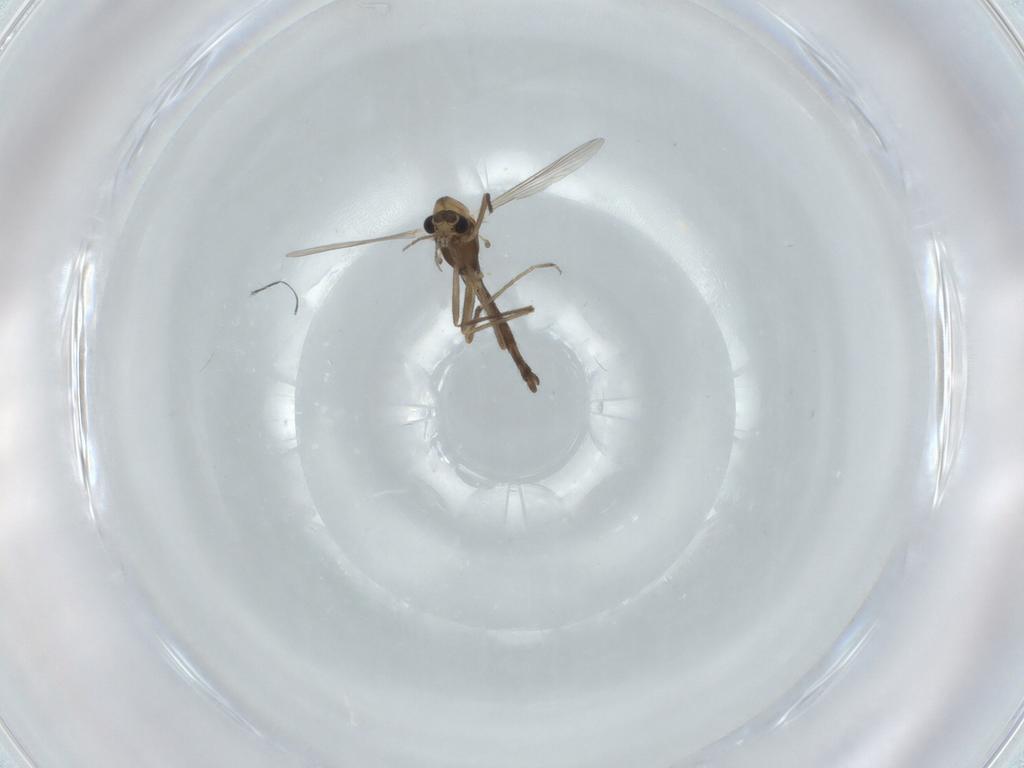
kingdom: Animalia
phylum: Arthropoda
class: Insecta
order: Diptera
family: Chironomidae
